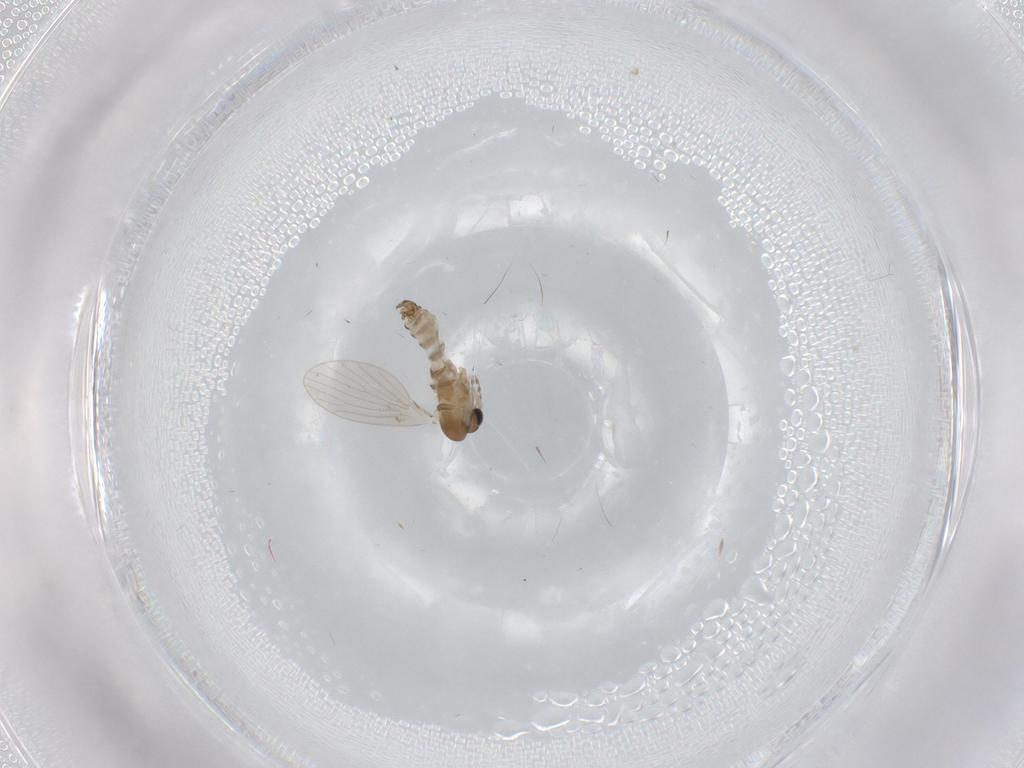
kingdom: Animalia
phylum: Arthropoda
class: Insecta
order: Diptera
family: Psychodidae
